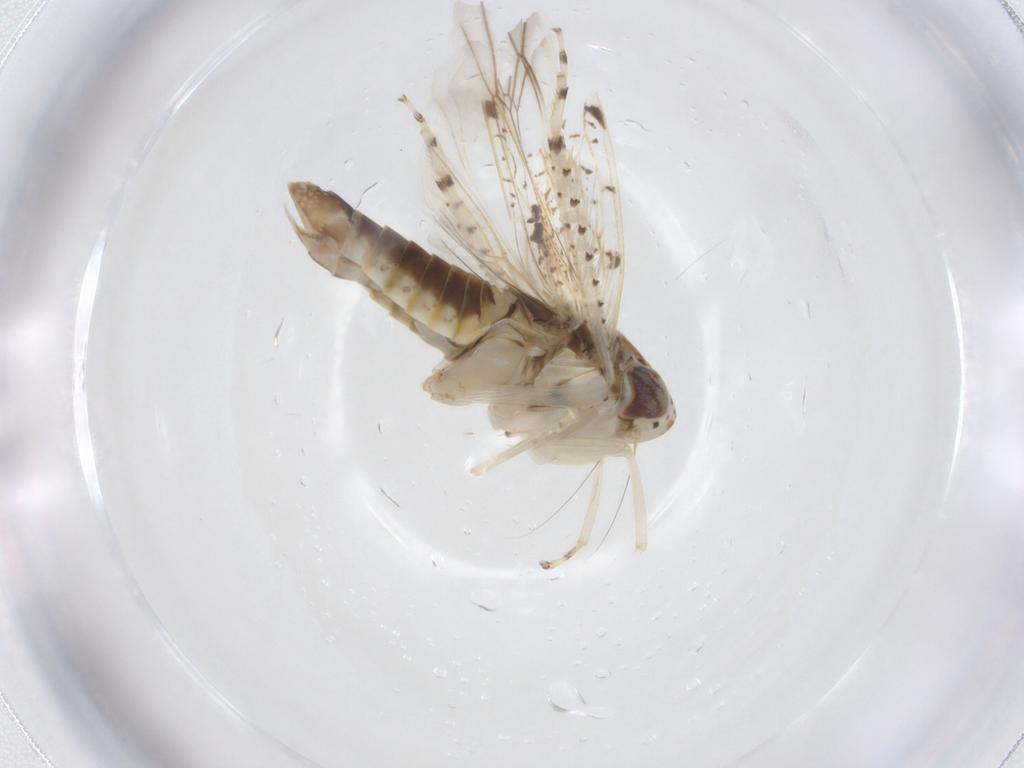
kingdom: Animalia
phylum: Arthropoda
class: Insecta
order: Hemiptera
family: Cicadellidae
